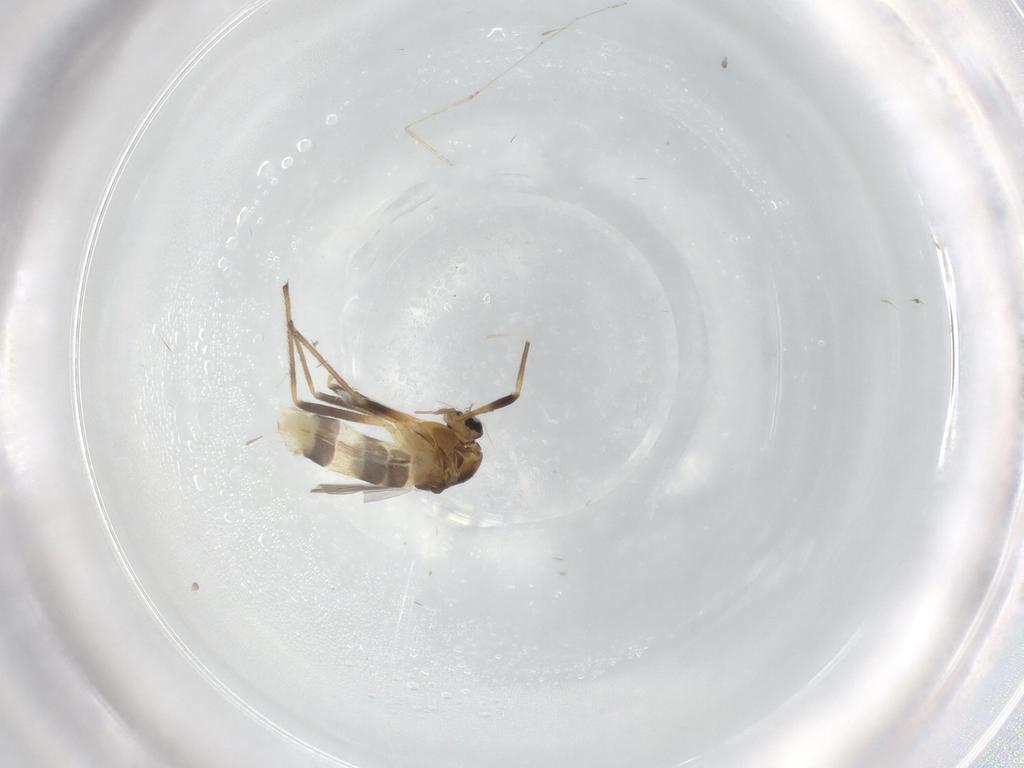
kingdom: Animalia
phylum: Arthropoda
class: Insecta
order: Diptera
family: Chironomidae
